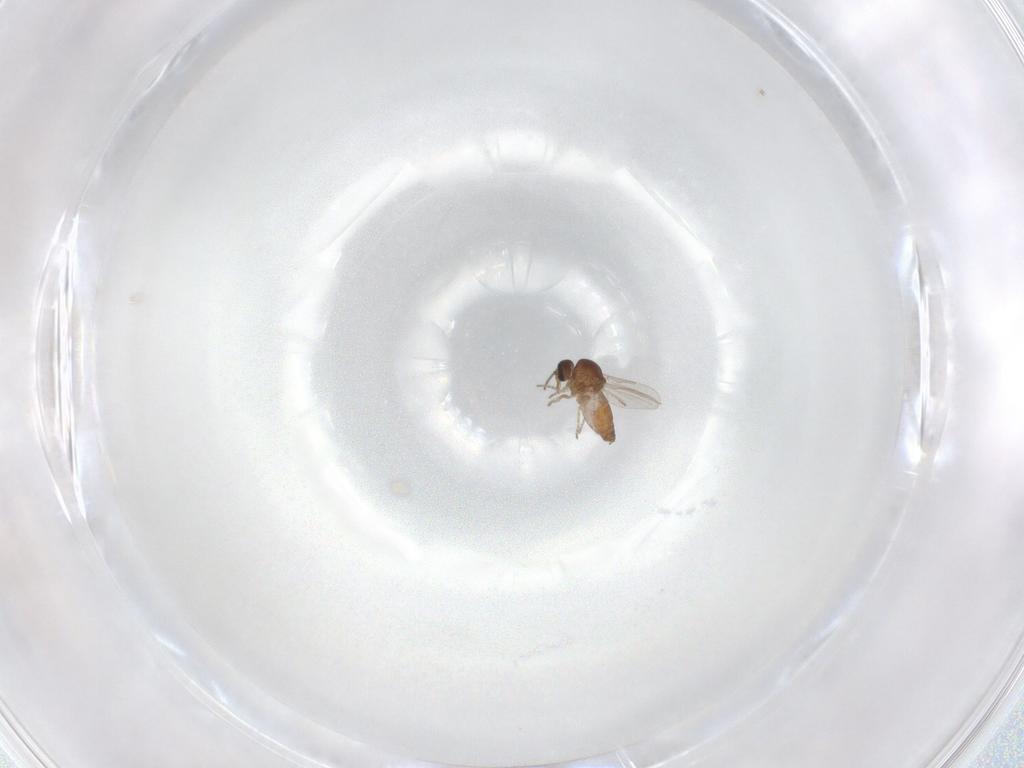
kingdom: Animalia
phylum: Arthropoda
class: Insecta
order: Diptera
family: Ceratopogonidae
